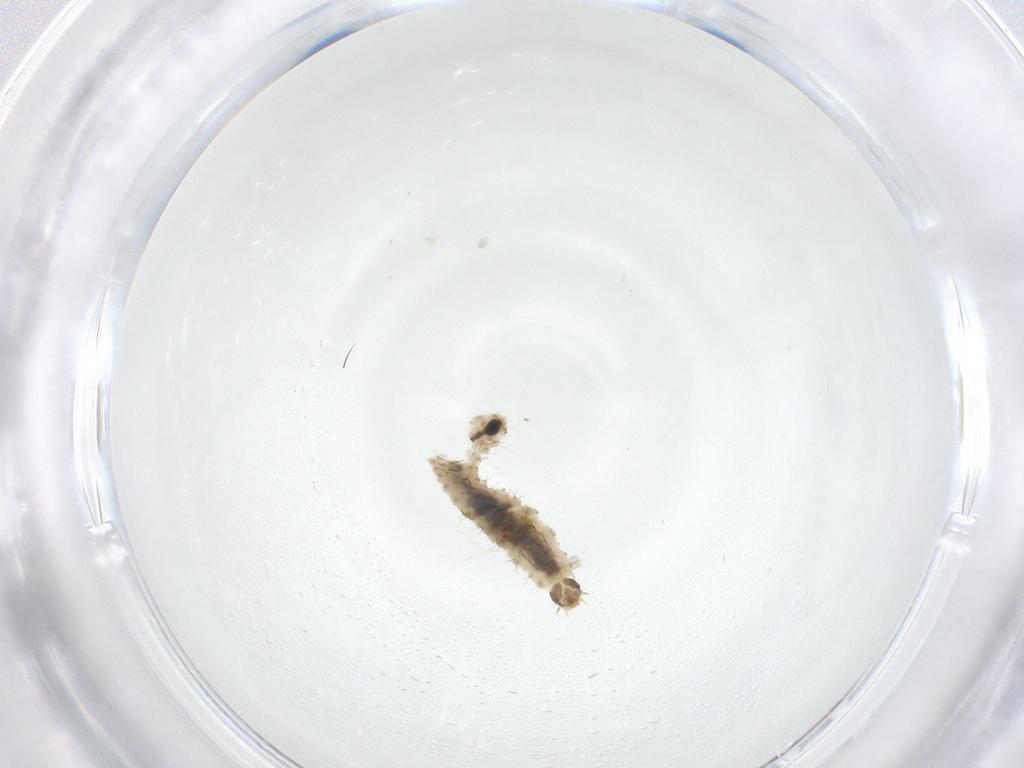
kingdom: Animalia
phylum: Arthropoda
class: Insecta
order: Coleoptera
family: Latridiidae
